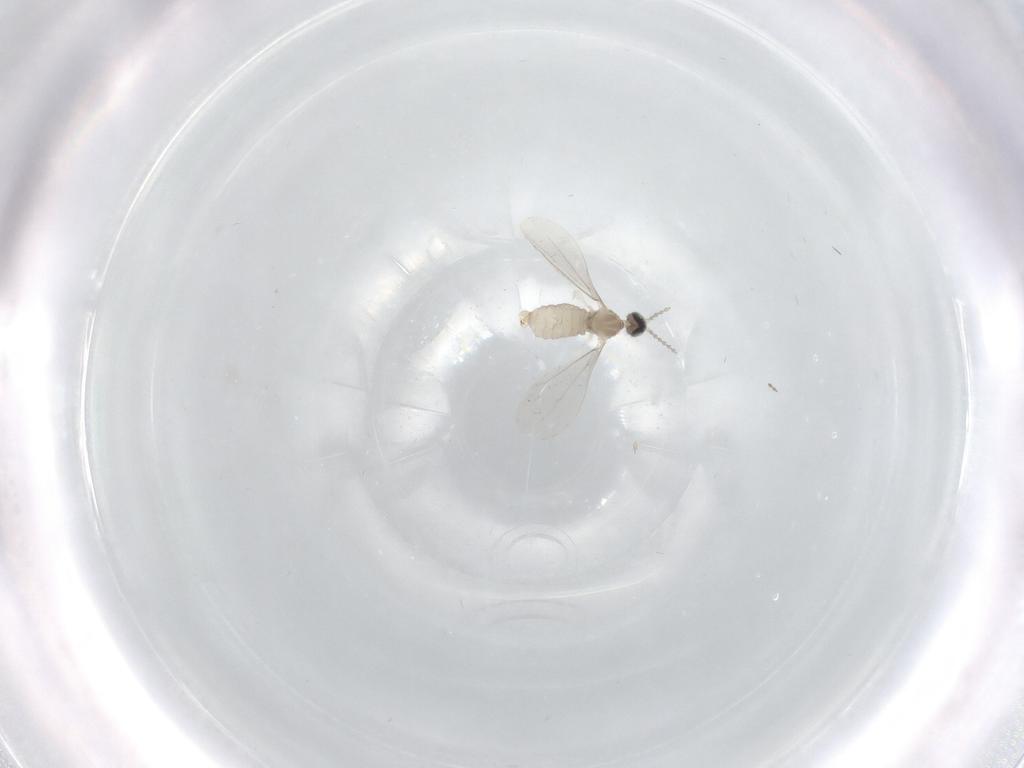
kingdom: Animalia
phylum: Arthropoda
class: Insecta
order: Diptera
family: Cecidomyiidae
